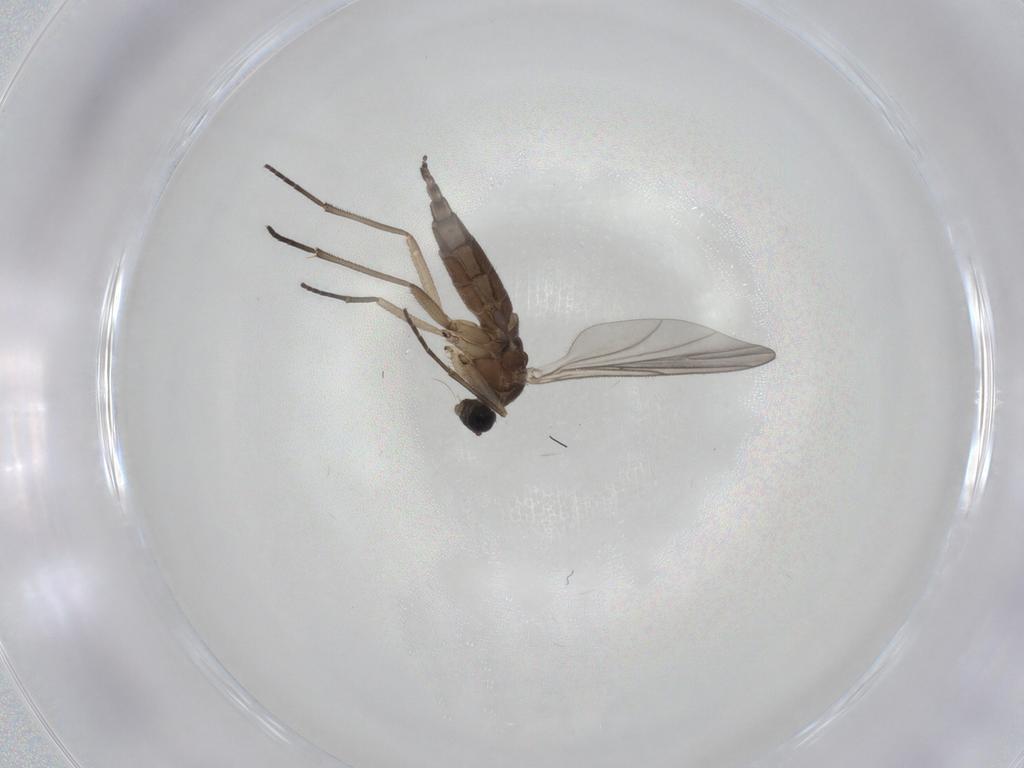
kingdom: Animalia
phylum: Arthropoda
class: Insecta
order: Diptera
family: Sciaridae
